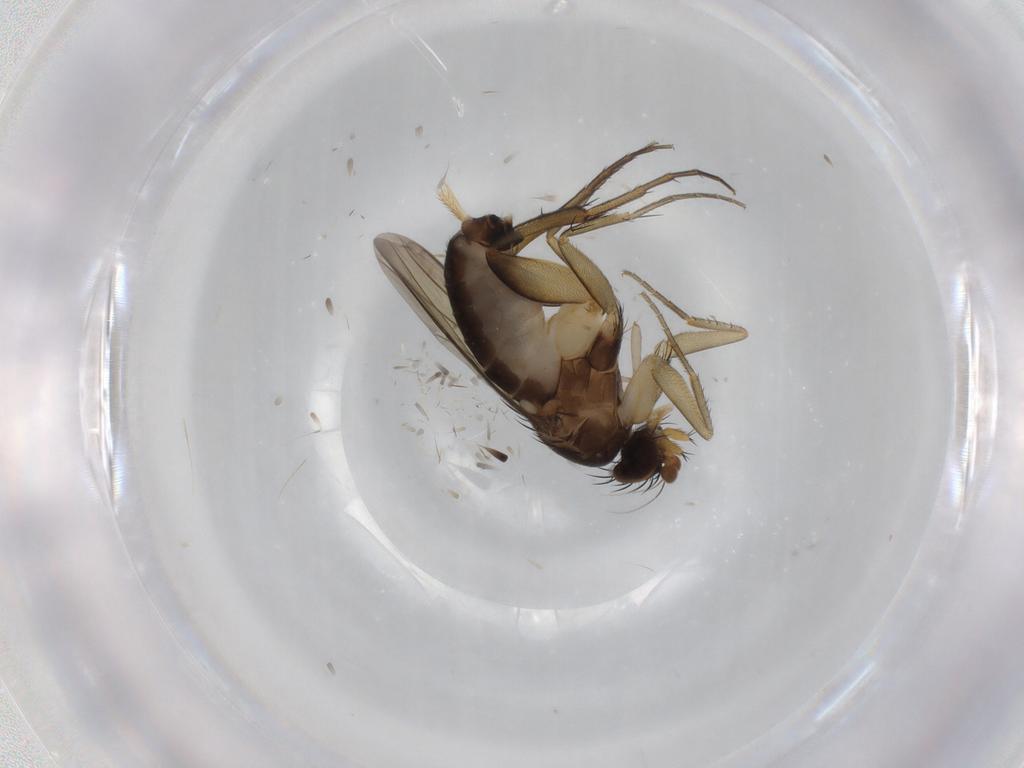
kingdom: Animalia
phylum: Arthropoda
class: Insecta
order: Diptera
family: Phoridae
